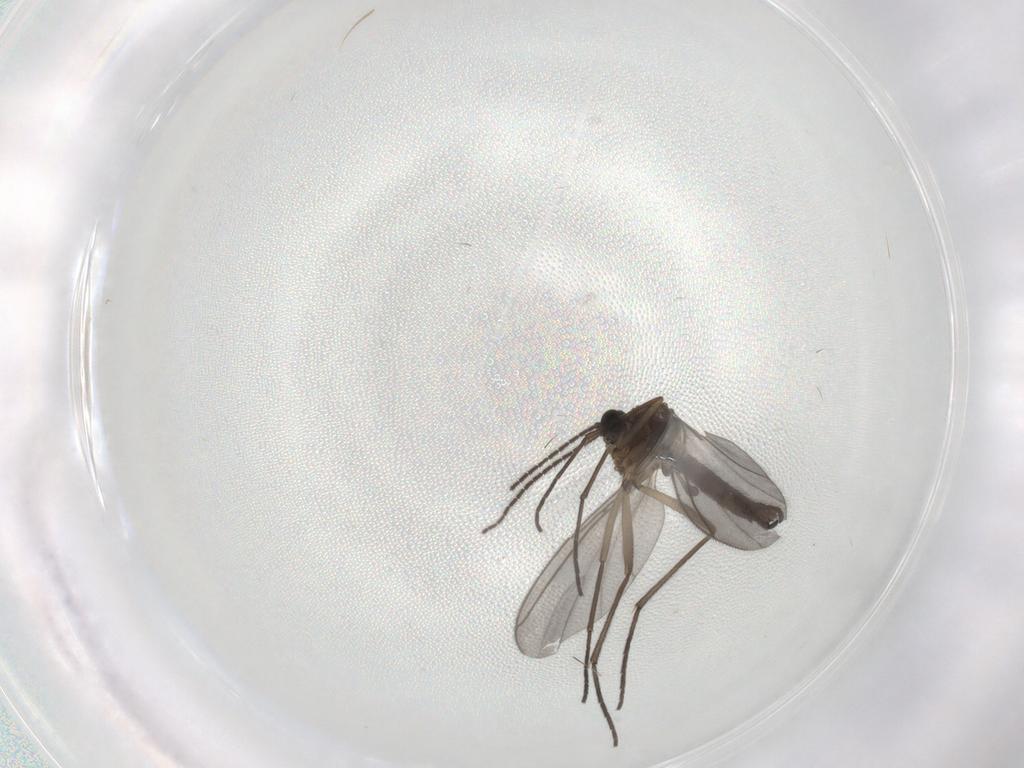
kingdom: Animalia
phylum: Arthropoda
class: Insecta
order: Diptera
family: Sciaridae
